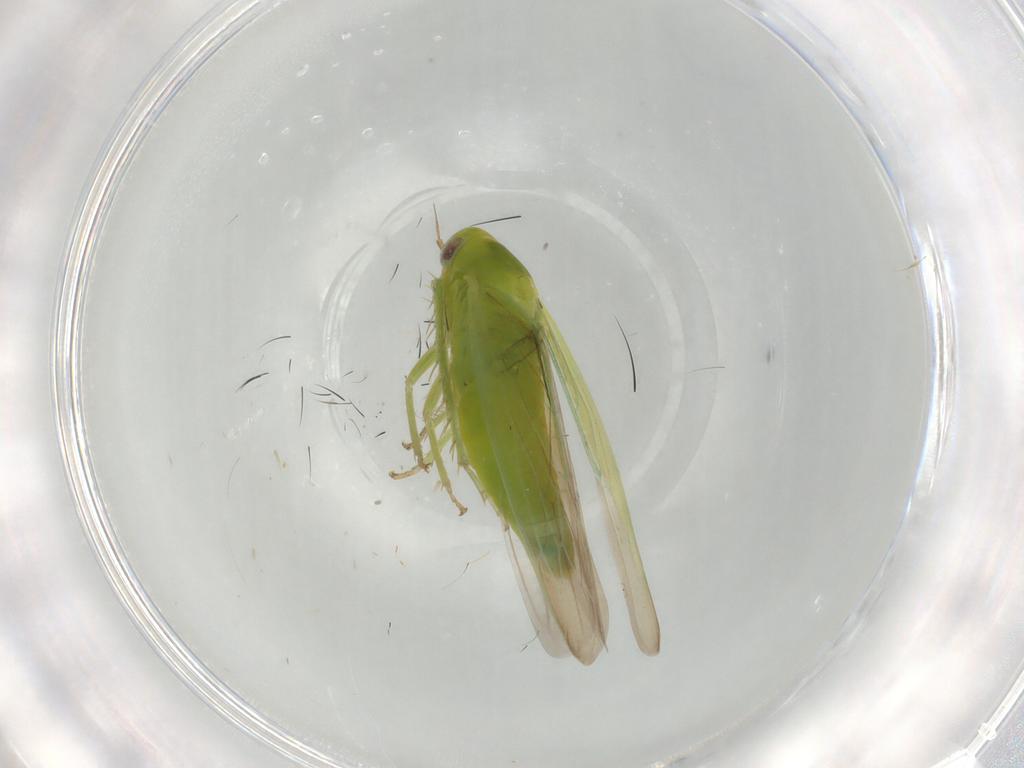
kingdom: Animalia
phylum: Arthropoda
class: Insecta
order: Hemiptera
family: Cicadellidae
